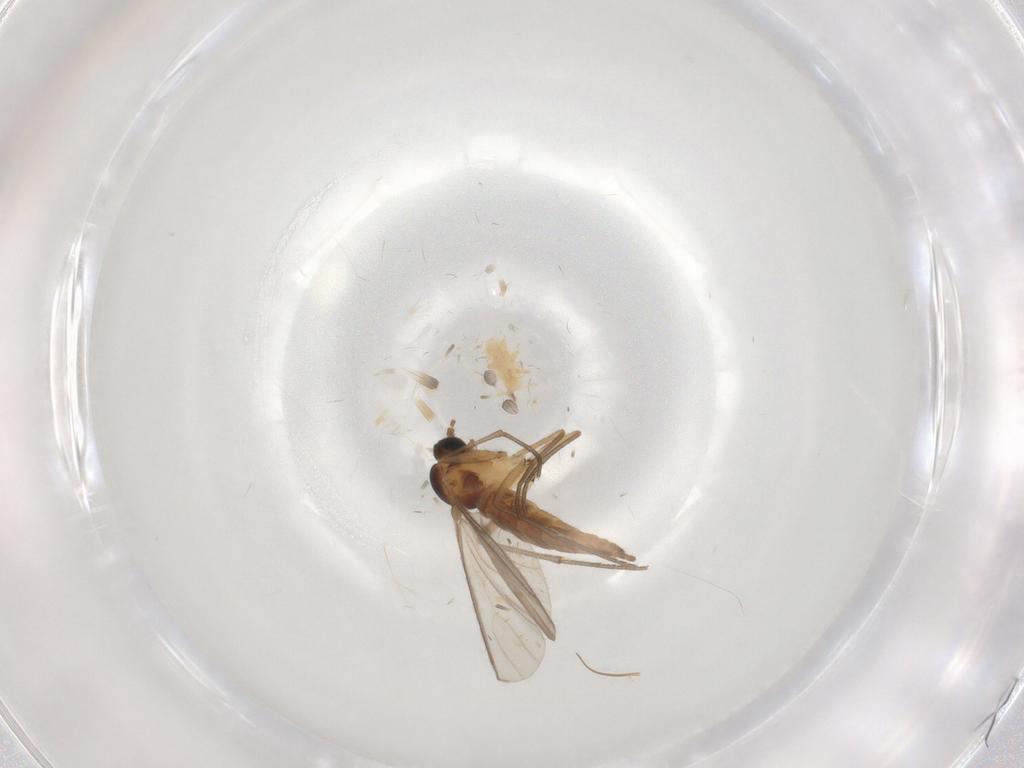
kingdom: Animalia
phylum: Arthropoda
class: Insecta
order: Diptera
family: Sciaridae
